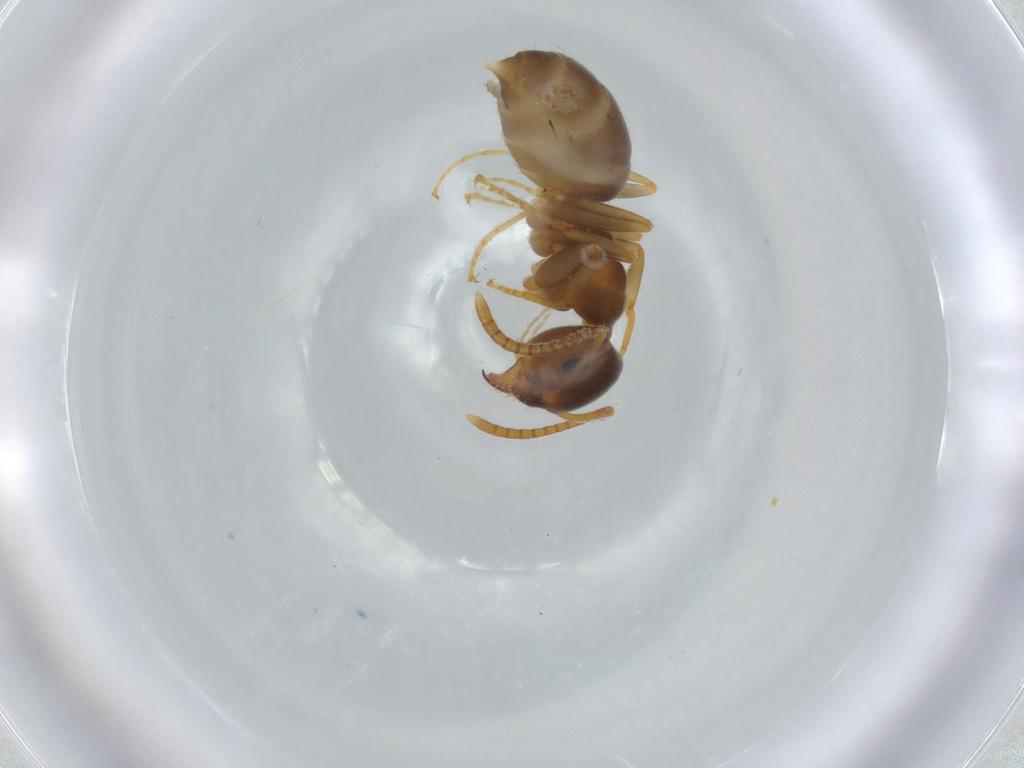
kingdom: Animalia
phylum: Arthropoda
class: Insecta
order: Hymenoptera
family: Formicidae
